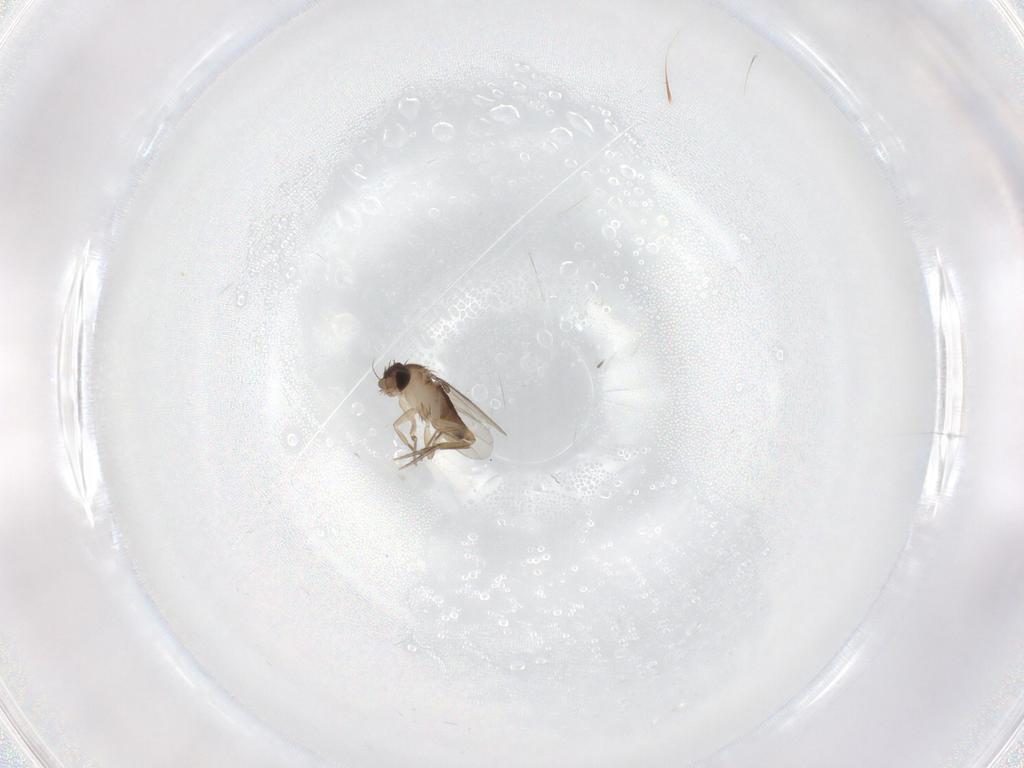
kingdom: Animalia
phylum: Arthropoda
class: Insecta
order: Diptera
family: Phoridae
